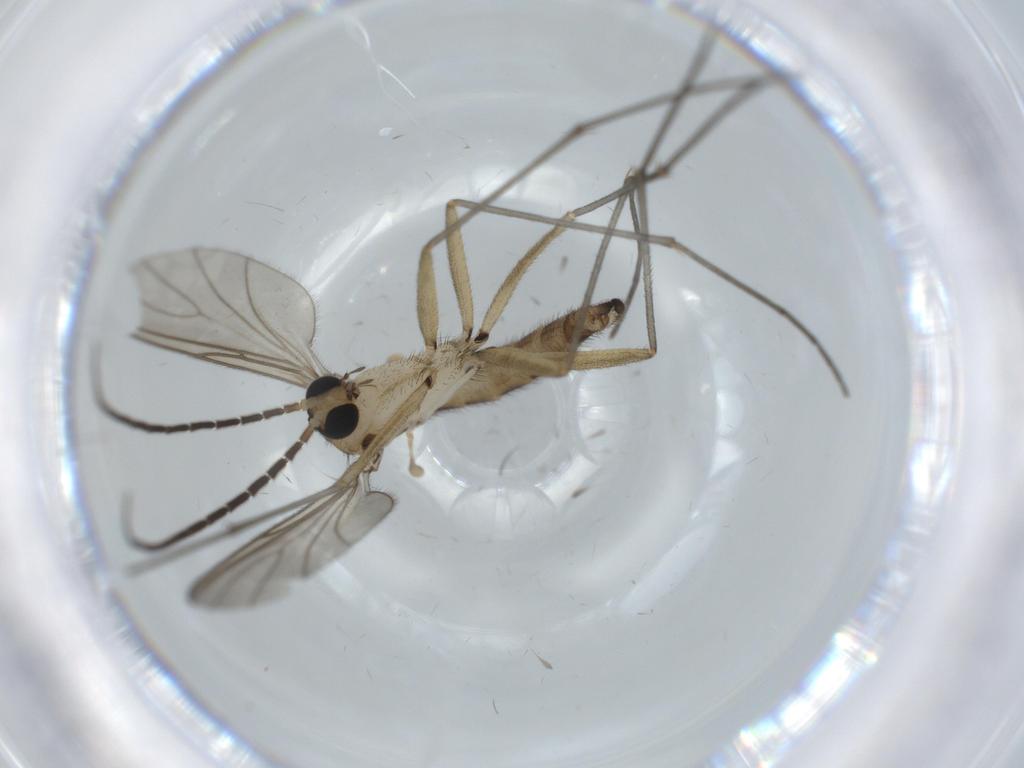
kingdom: Animalia
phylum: Arthropoda
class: Insecta
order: Diptera
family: Sciaridae
